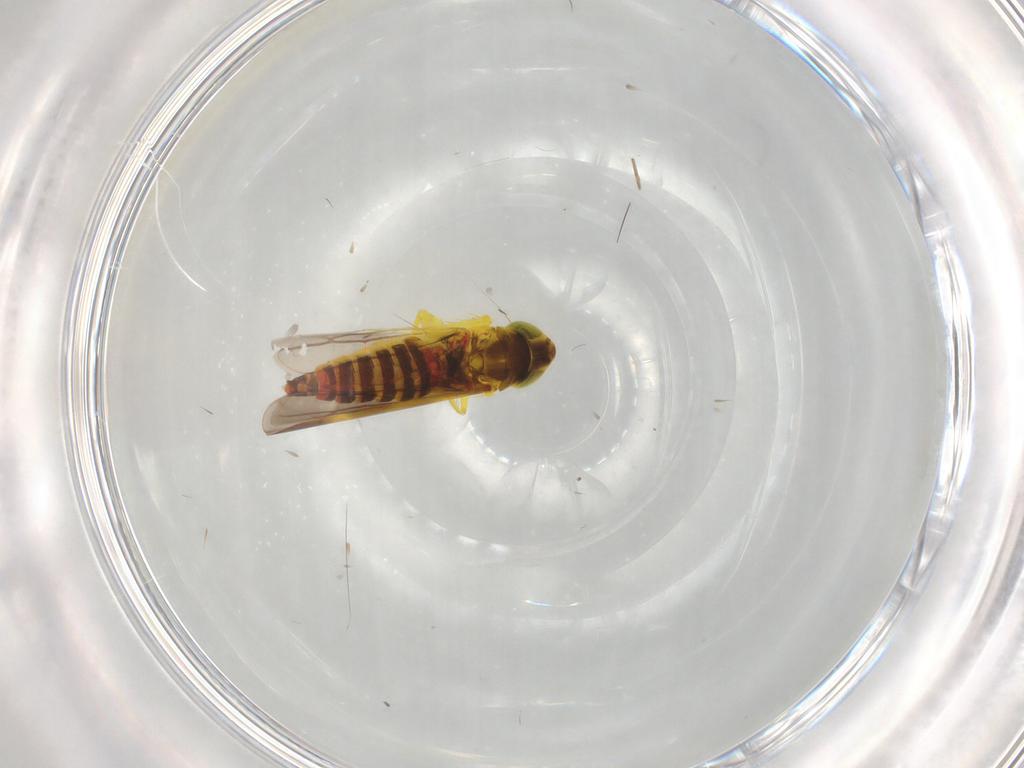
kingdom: Animalia
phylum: Arthropoda
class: Insecta
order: Hemiptera
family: Cicadellidae
